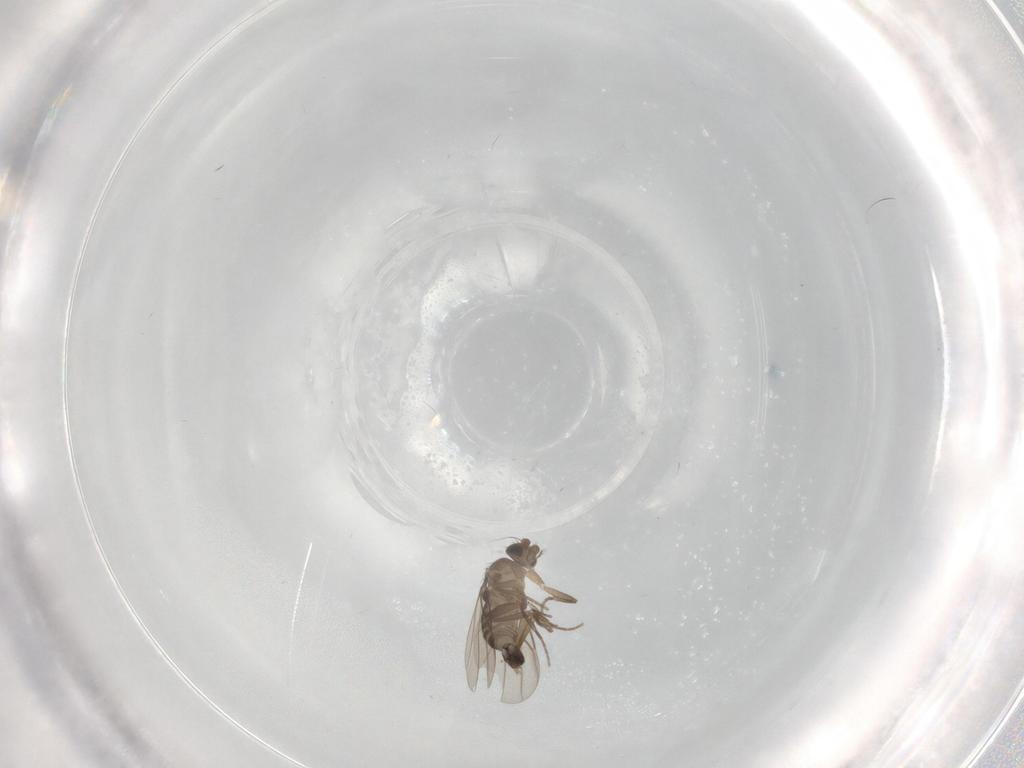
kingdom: Animalia
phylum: Arthropoda
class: Insecta
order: Diptera
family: Phoridae
